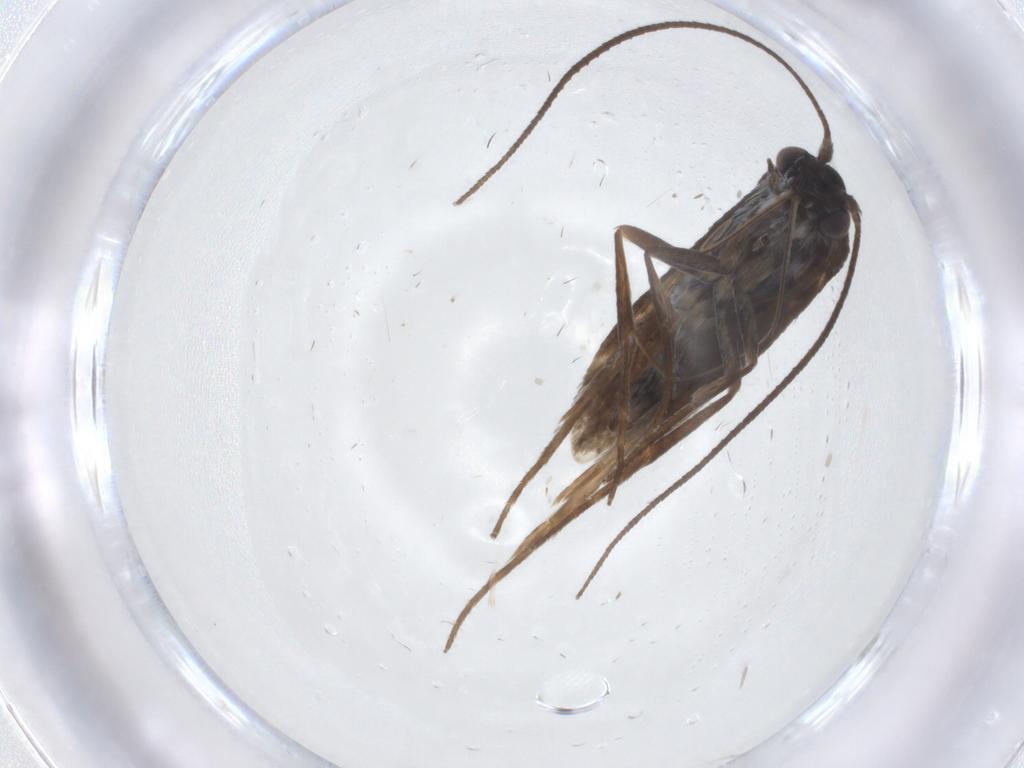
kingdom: Animalia
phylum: Arthropoda
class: Insecta
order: Lepidoptera
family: Adelidae
